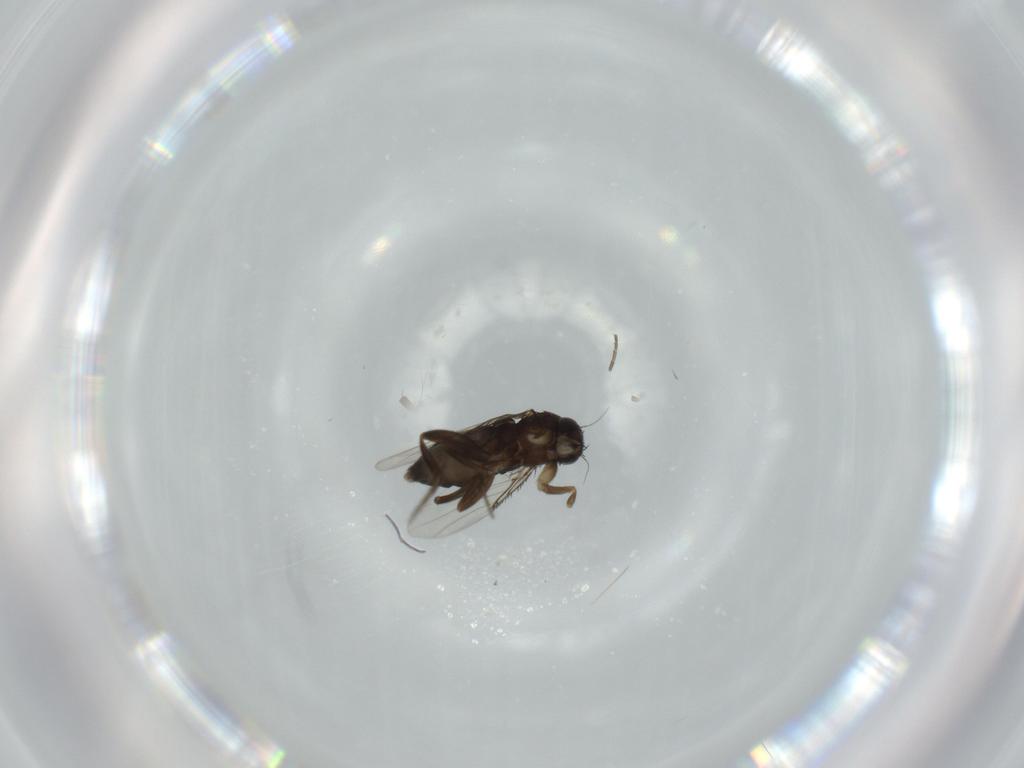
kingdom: Animalia
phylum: Arthropoda
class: Insecta
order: Diptera
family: Phoridae
